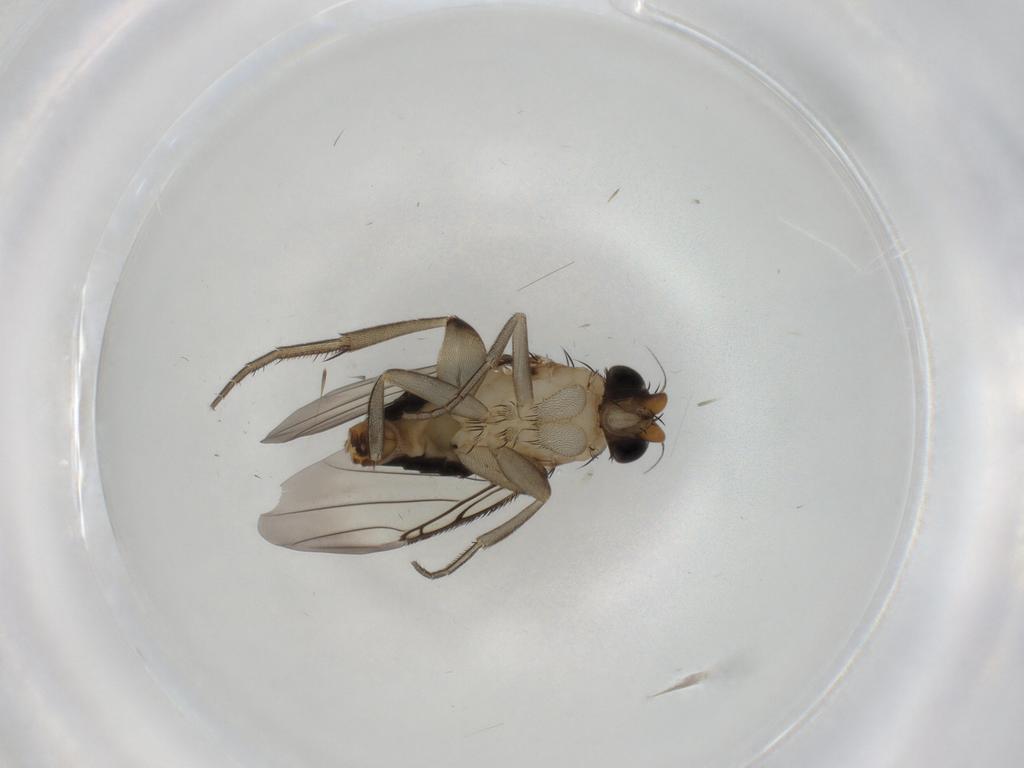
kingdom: Animalia
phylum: Arthropoda
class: Insecta
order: Diptera
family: Phoridae
